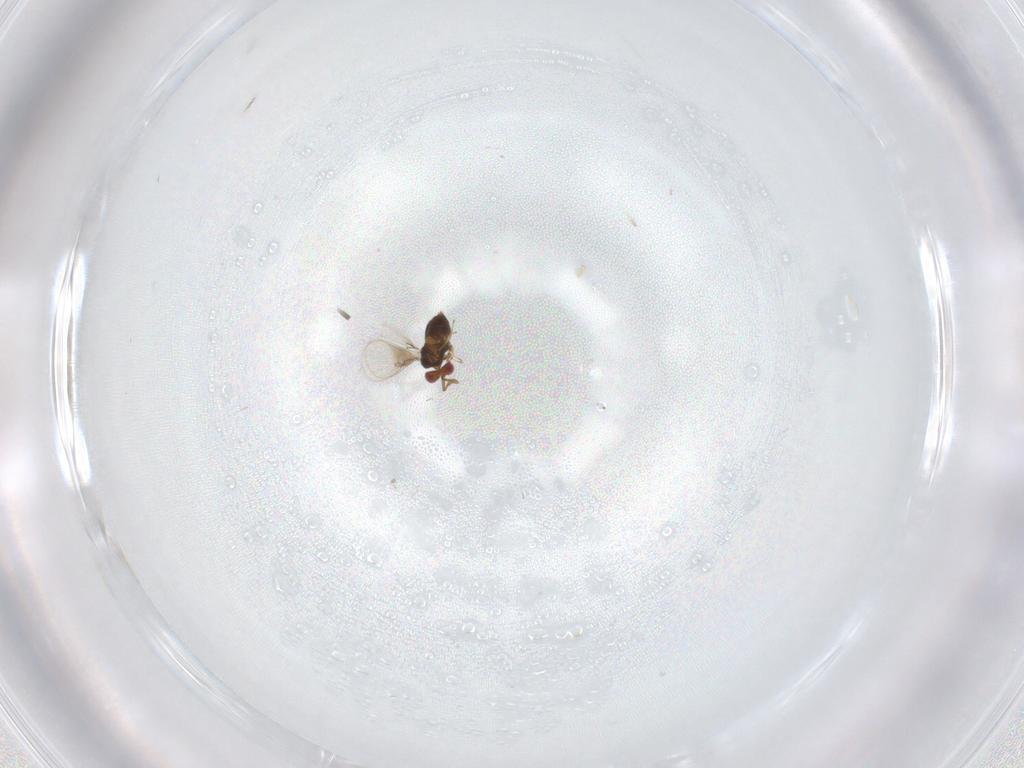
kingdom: Animalia
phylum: Arthropoda
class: Insecta
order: Hymenoptera
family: Trichogrammatidae
